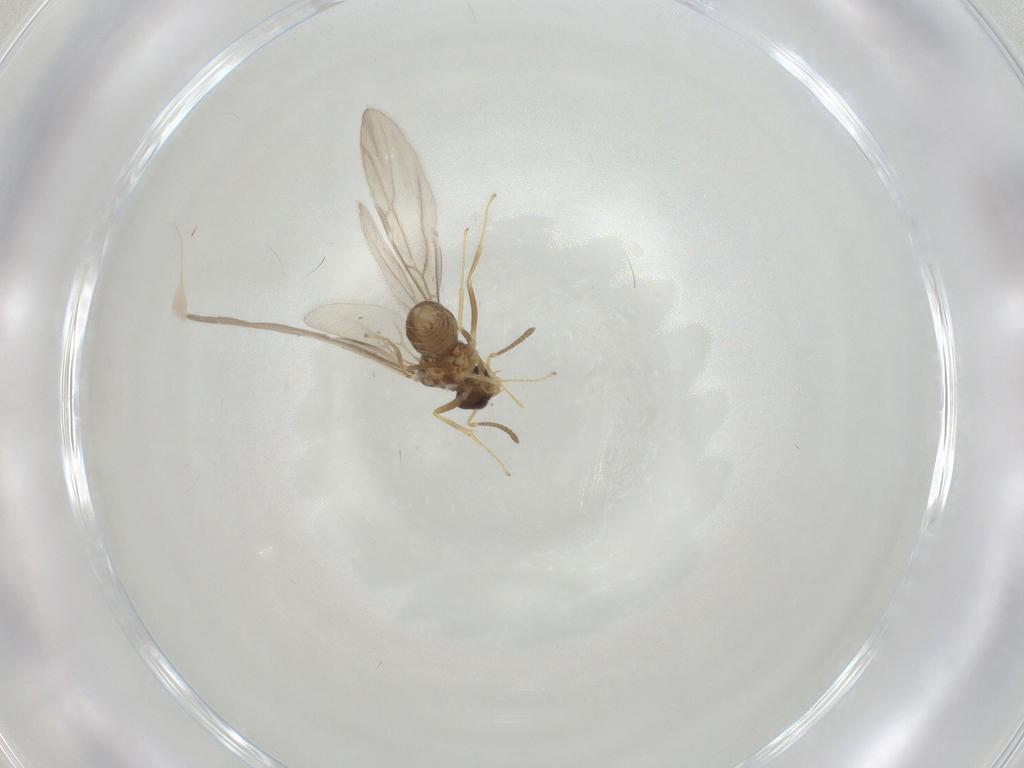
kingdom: Animalia
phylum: Arthropoda
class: Insecta
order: Hymenoptera
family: Formicidae
